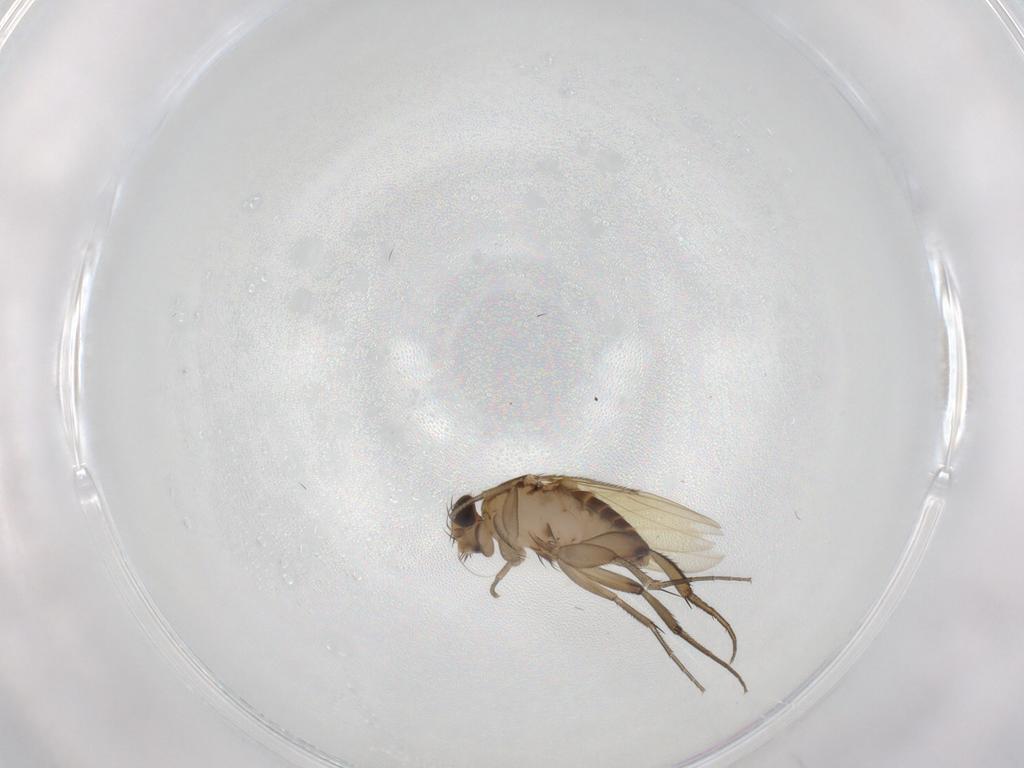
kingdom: Animalia
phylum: Arthropoda
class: Insecta
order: Diptera
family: Phoridae
